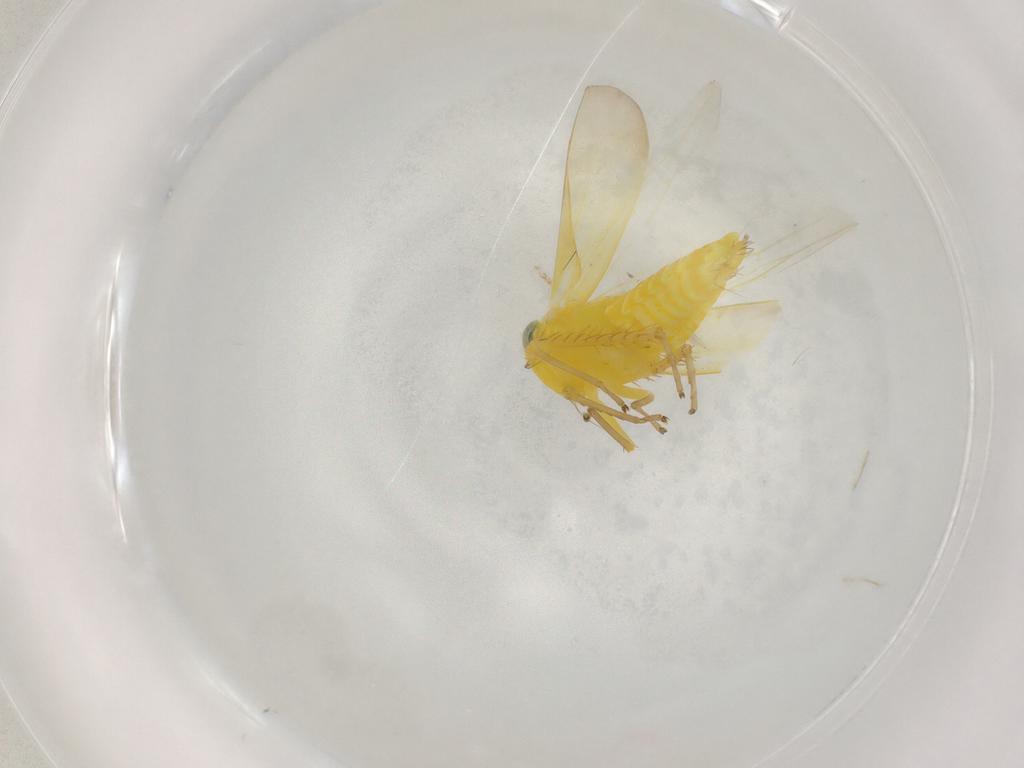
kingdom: Animalia
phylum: Arthropoda
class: Insecta
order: Hemiptera
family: Cicadellidae
